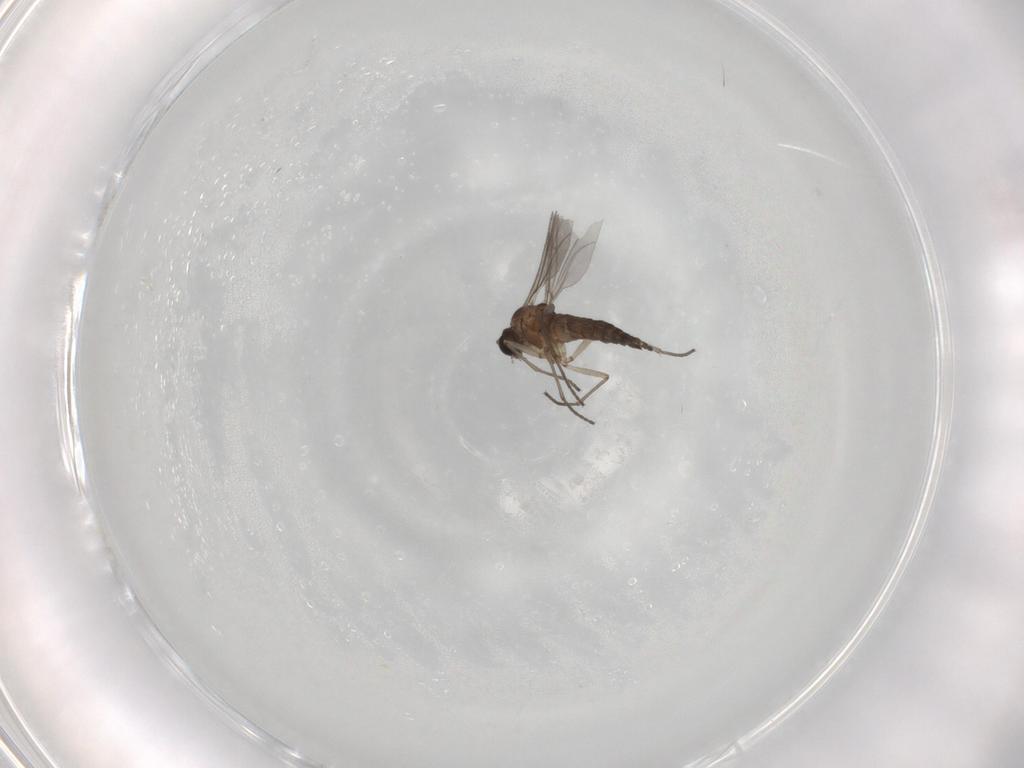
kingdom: Animalia
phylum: Arthropoda
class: Insecta
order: Diptera
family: Sciaridae
